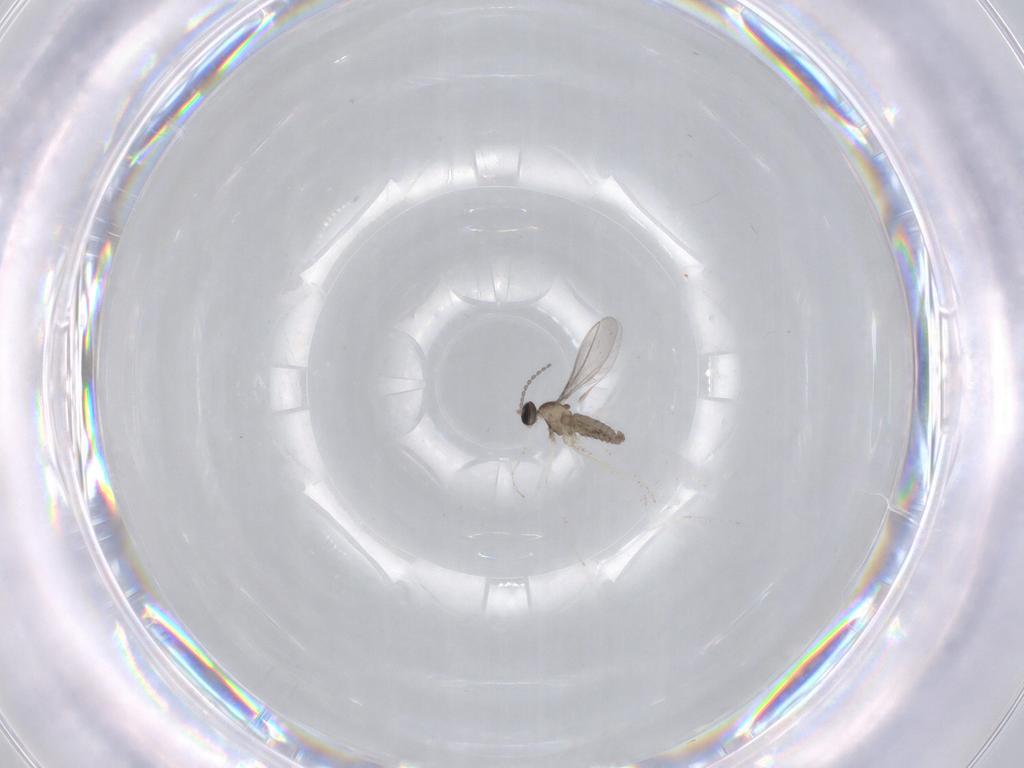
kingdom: Animalia
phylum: Arthropoda
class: Insecta
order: Diptera
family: Cecidomyiidae
